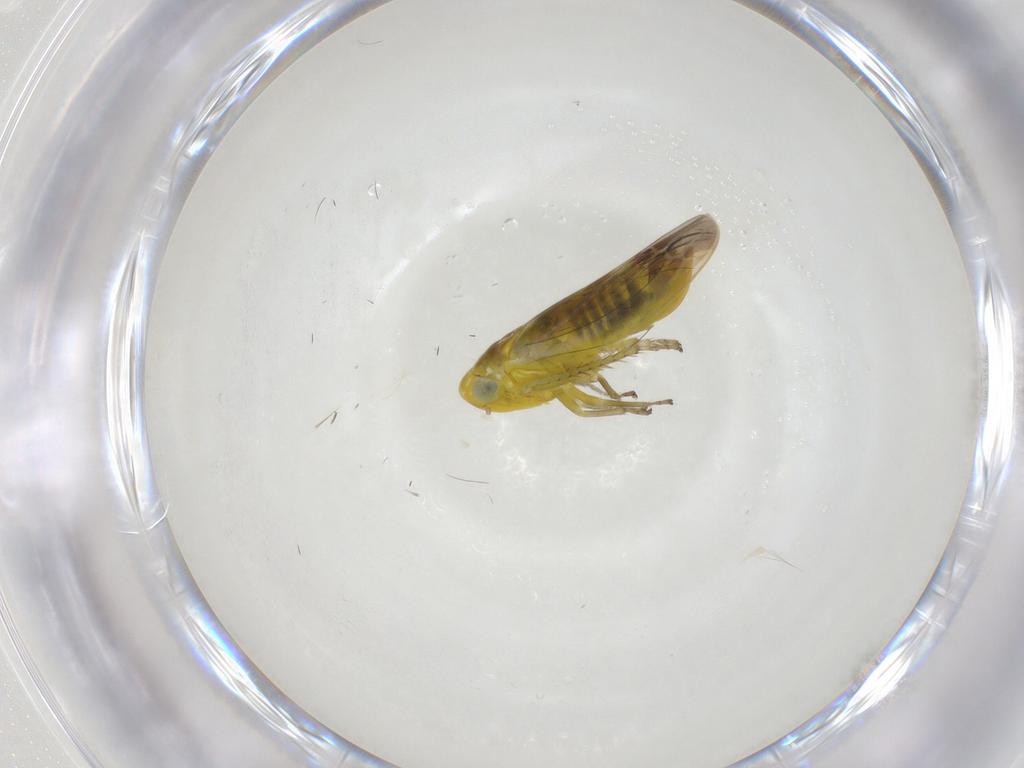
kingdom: Animalia
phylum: Arthropoda
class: Insecta
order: Hemiptera
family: Cicadellidae
